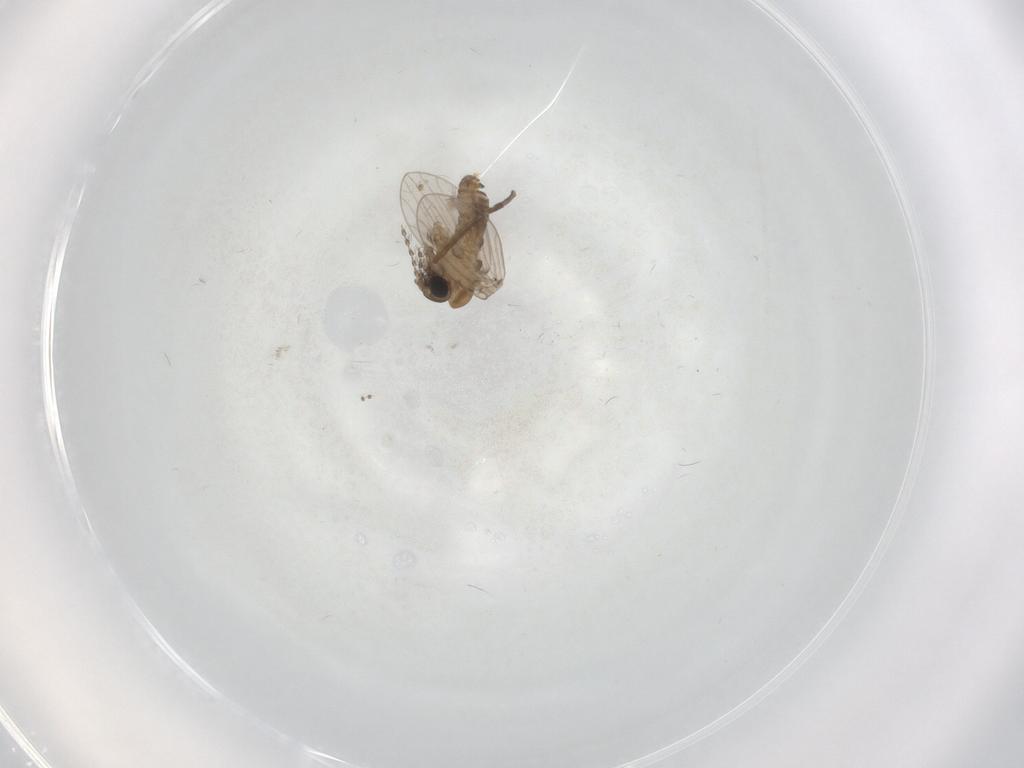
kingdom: Animalia
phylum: Arthropoda
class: Insecta
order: Diptera
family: Psychodidae
